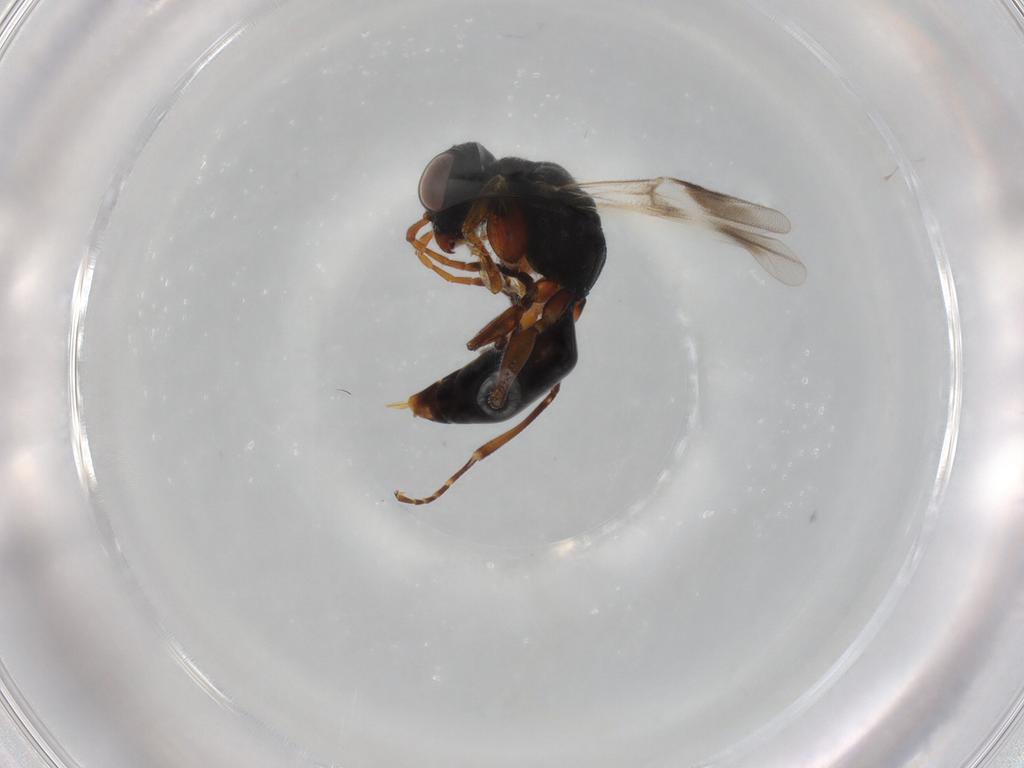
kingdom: Animalia
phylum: Arthropoda
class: Insecta
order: Hymenoptera
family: Dryinidae
